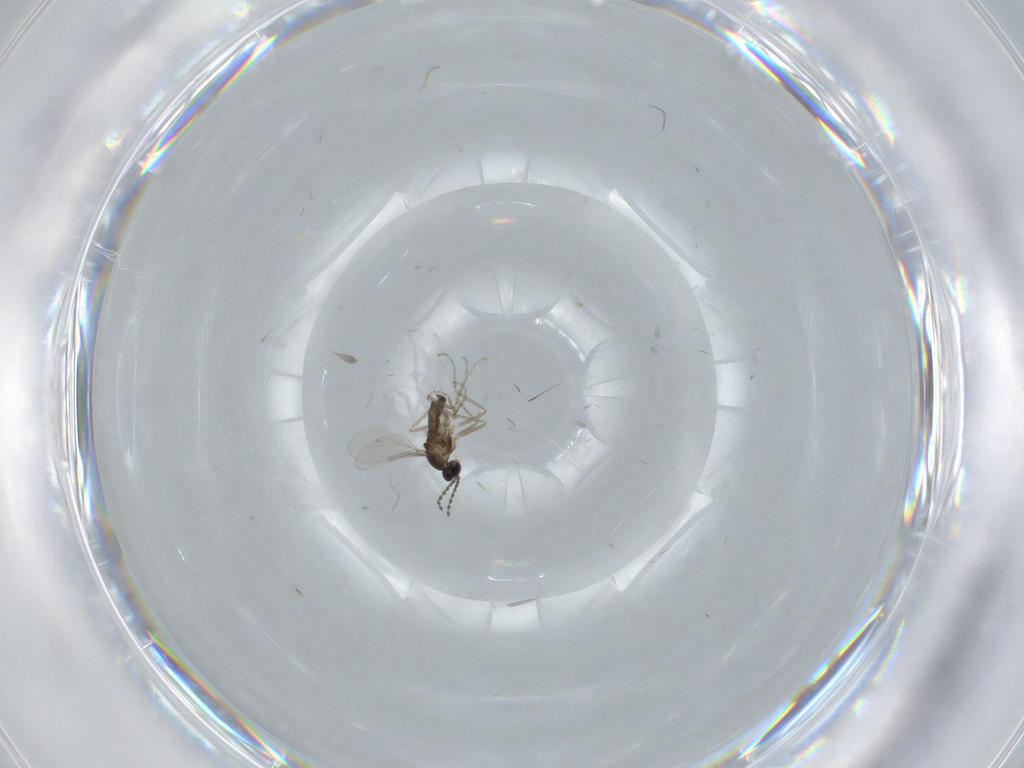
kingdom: Animalia
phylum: Arthropoda
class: Insecta
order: Diptera
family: Cecidomyiidae
